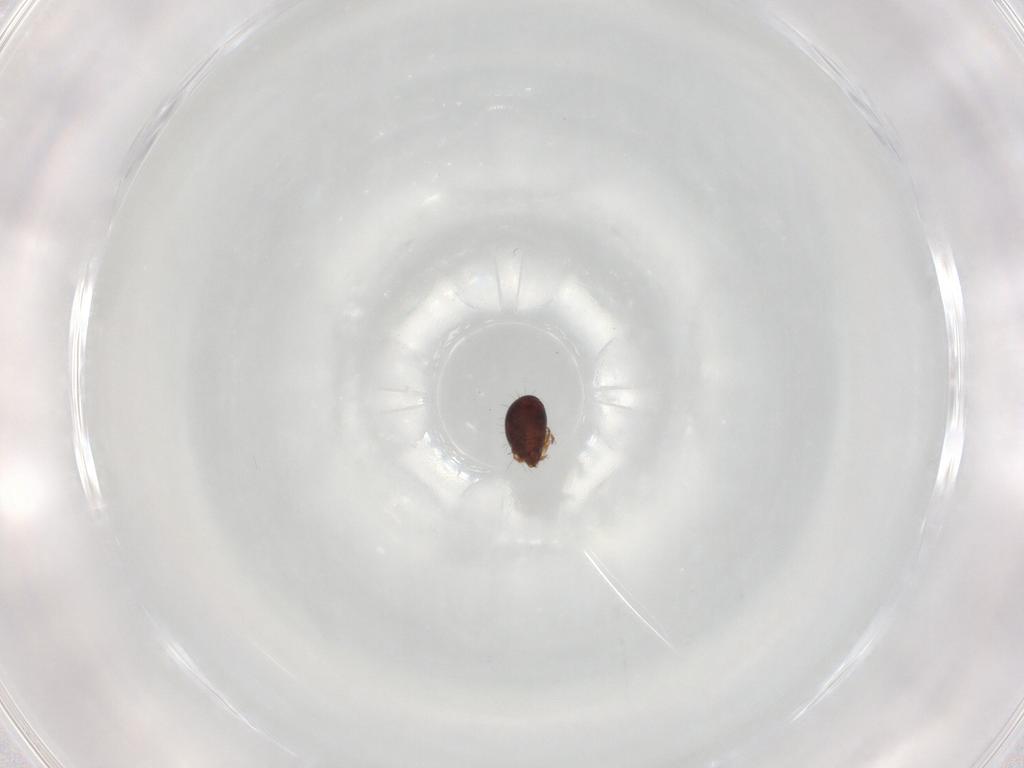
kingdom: Animalia
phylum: Arthropoda
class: Arachnida
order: Sarcoptiformes
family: Humerobatidae
